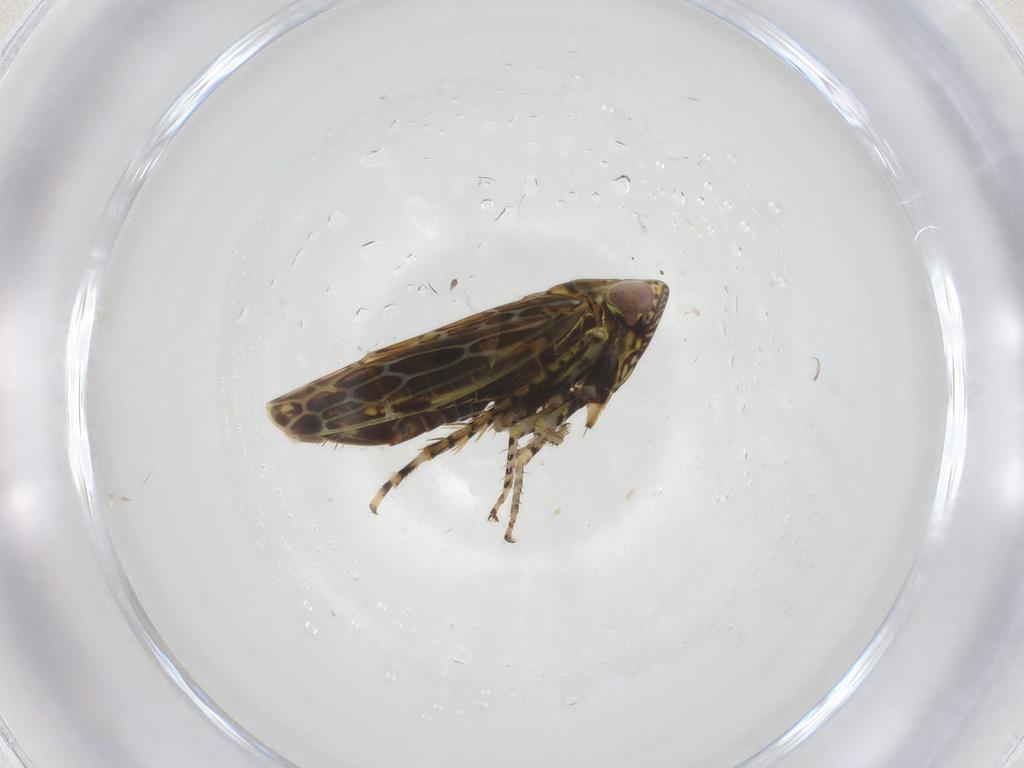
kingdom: Animalia
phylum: Arthropoda
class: Insecta
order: Hemiptera
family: Cicadellidae
